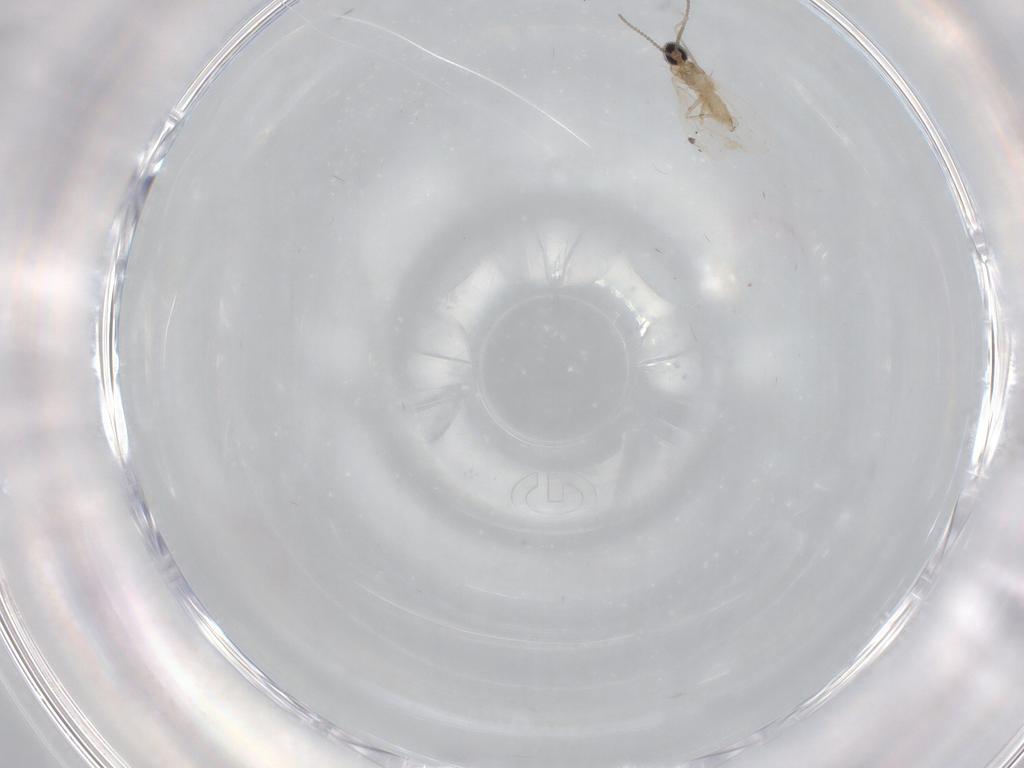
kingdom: Animalia
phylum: Arthropoda
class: Insecta
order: Diptera
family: Cecidomyiidae
